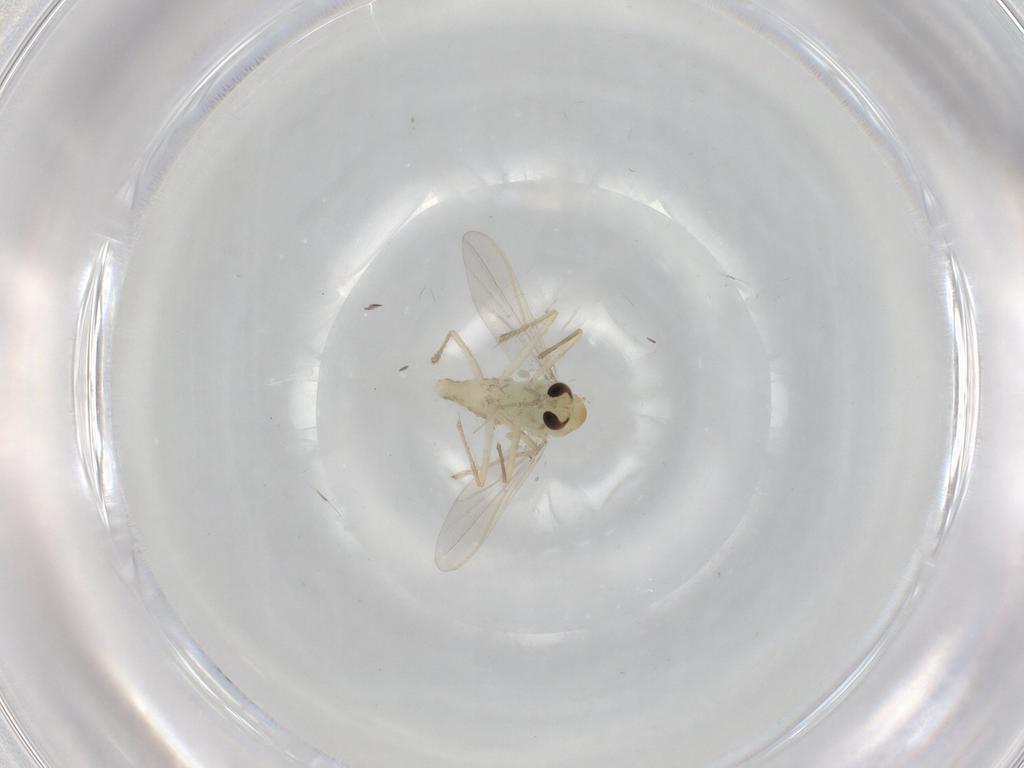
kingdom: Animalia
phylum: Arthropoda
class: Insecta
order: Diptera
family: Chironomidae
